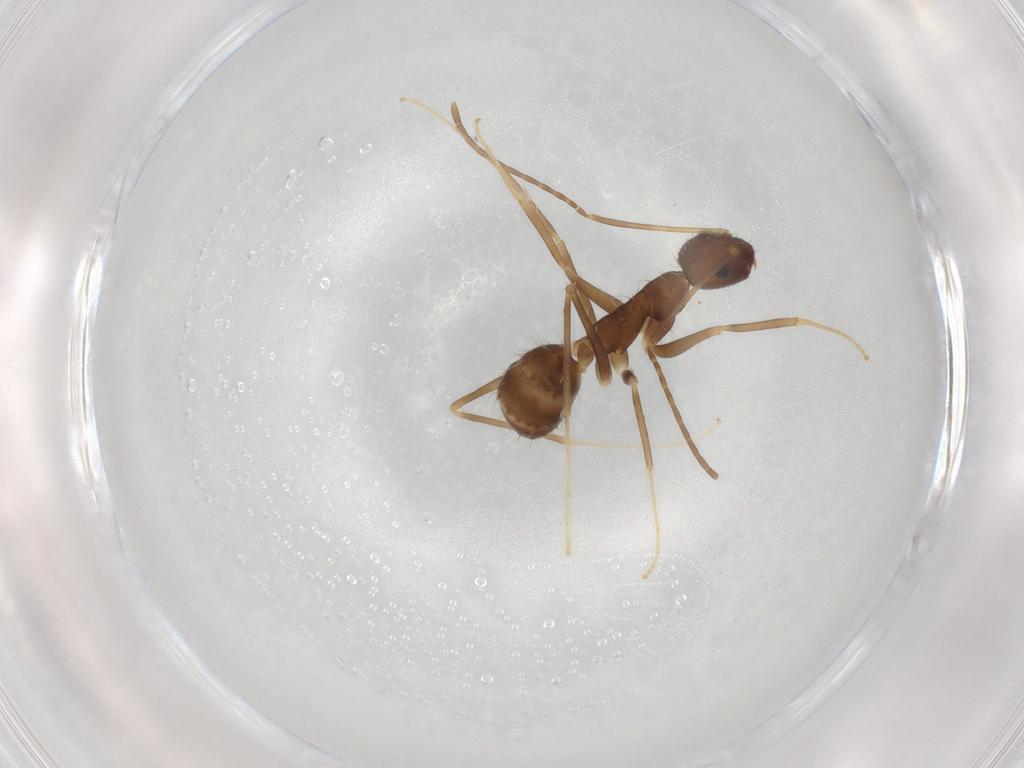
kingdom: Animalia
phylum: Arthropoda
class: Insecta
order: Hymenoptera
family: Formicidae
